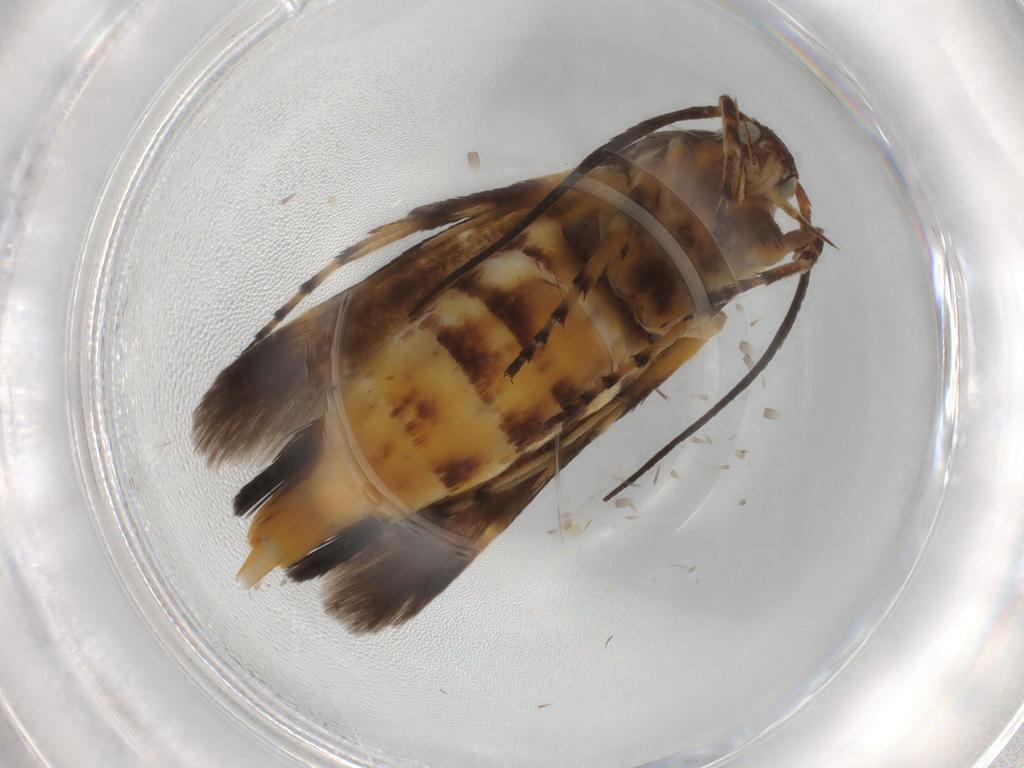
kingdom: Animalia
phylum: Arthropoda
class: Insecta
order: Lepidoptera
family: Scythrididae
